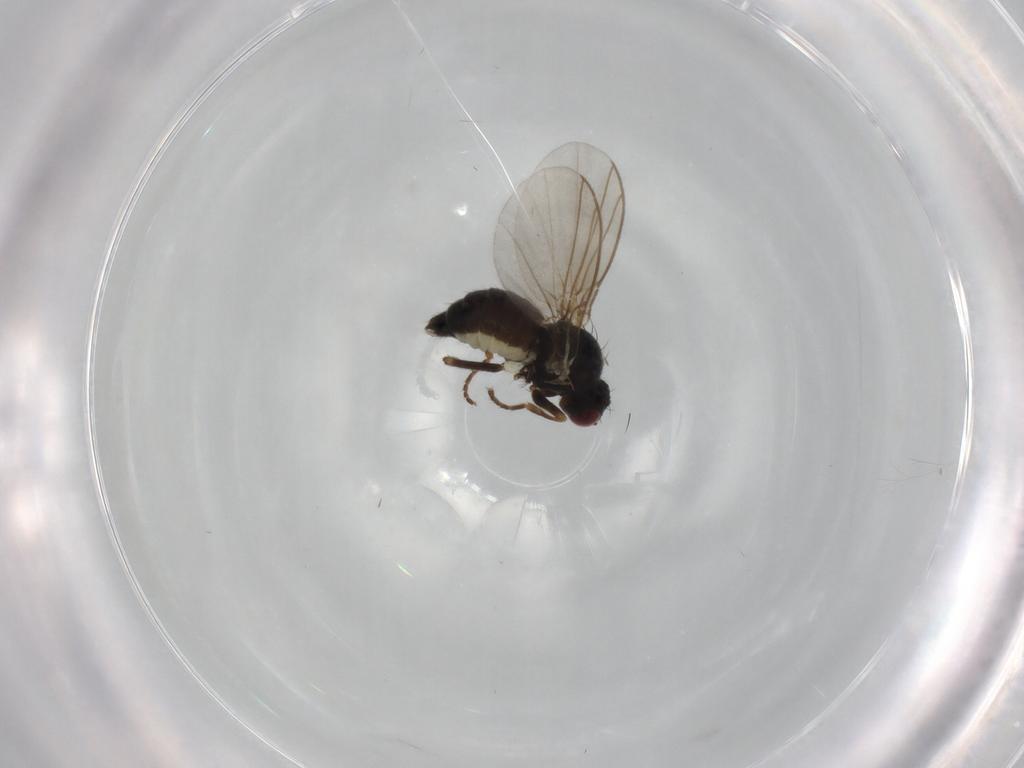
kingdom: Animalia
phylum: Arthropoda
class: Insecta
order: Diptera
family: Agromyzidae
